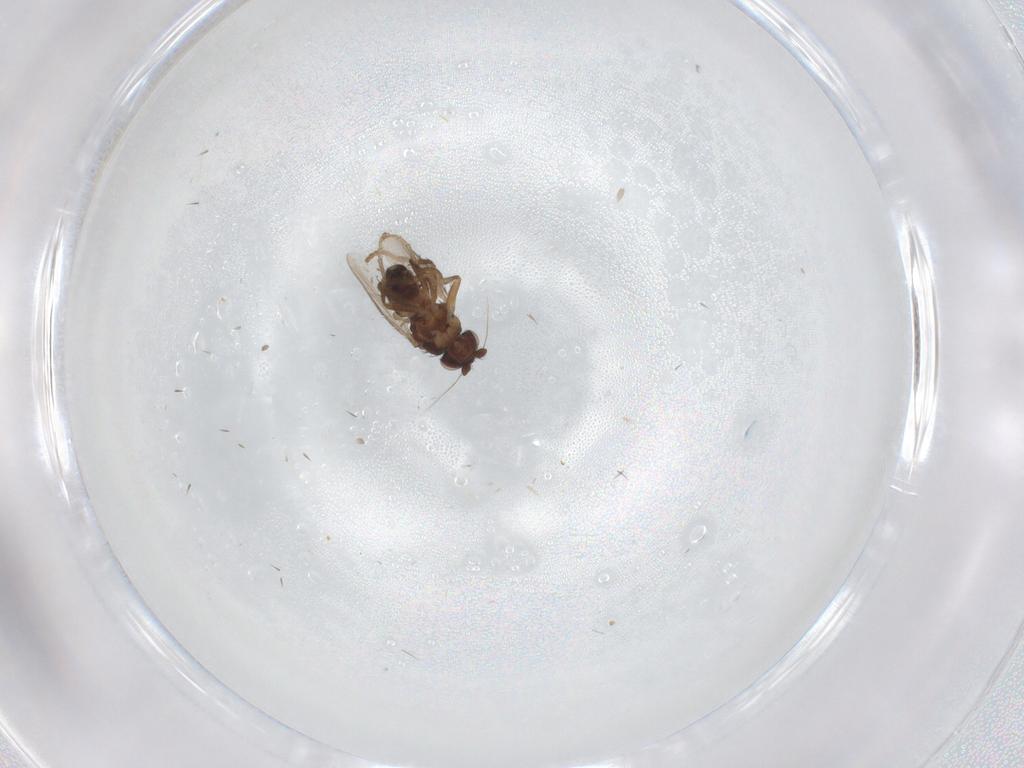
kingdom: Animalia
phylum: Arthropoda
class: Insecta
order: Diptera
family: Sphaeroceridae
